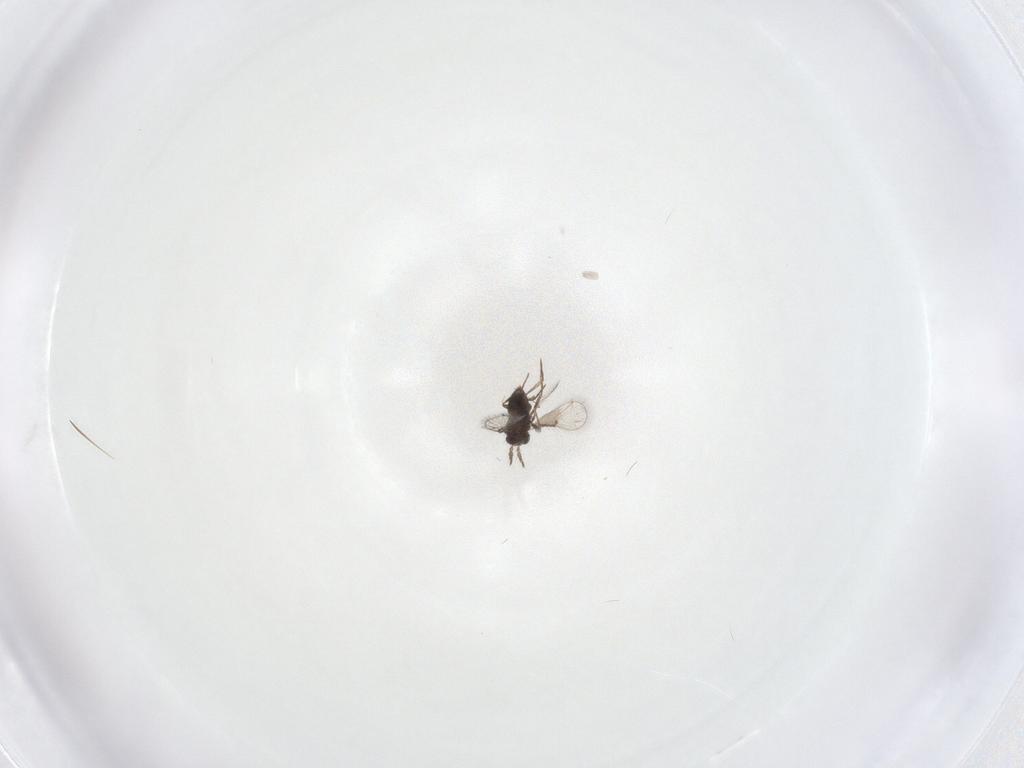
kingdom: Animalia
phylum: Arthropoda
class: Insecta
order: Hymenoptera
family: Trichogrammatidae
